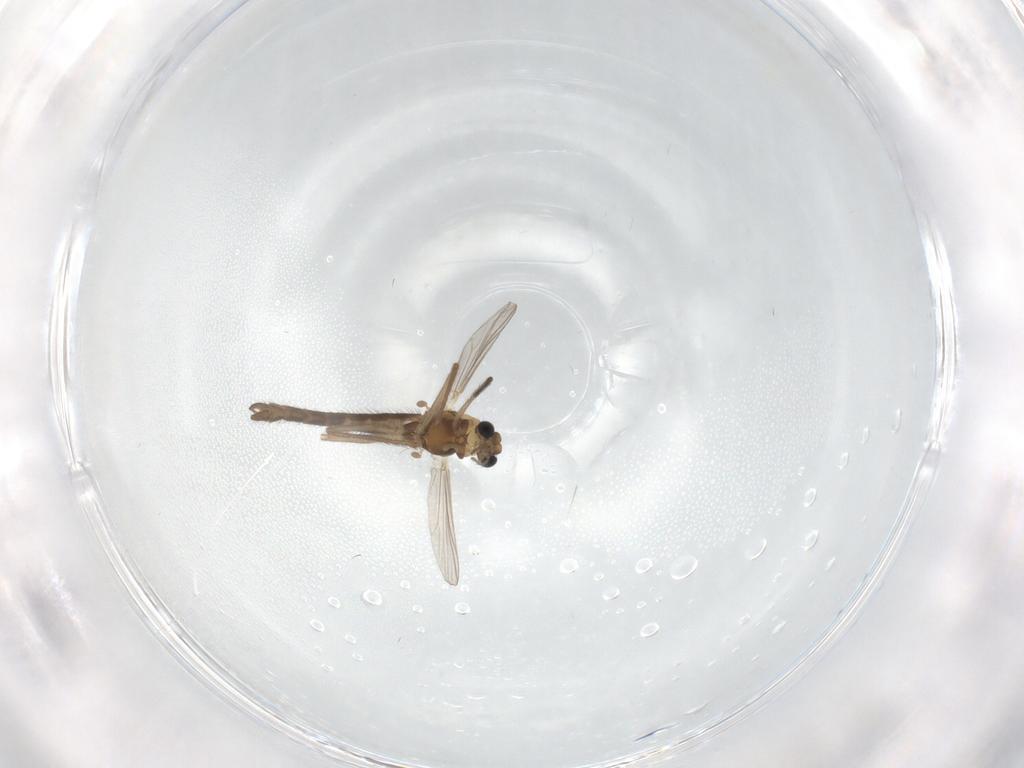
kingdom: Animalia
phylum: Arthropoda
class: Insecta
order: Diptera
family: Chironomidae
